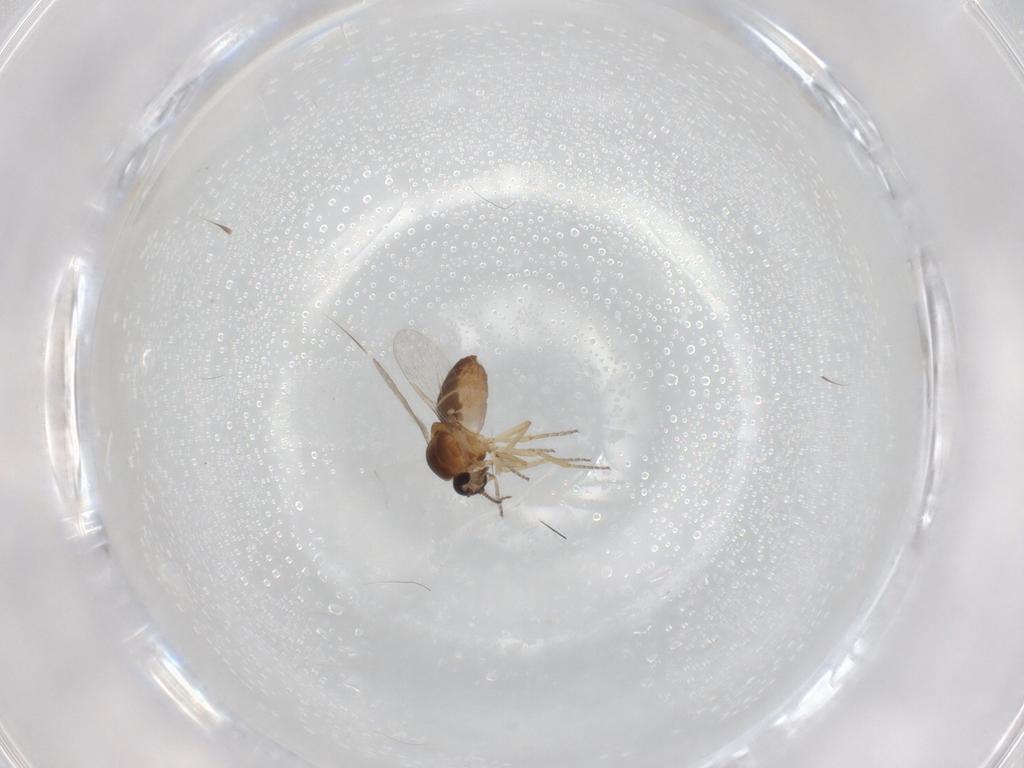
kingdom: Animalia
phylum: Arthropoda
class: Insecta
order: Diptera
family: Ceratopogonidae
